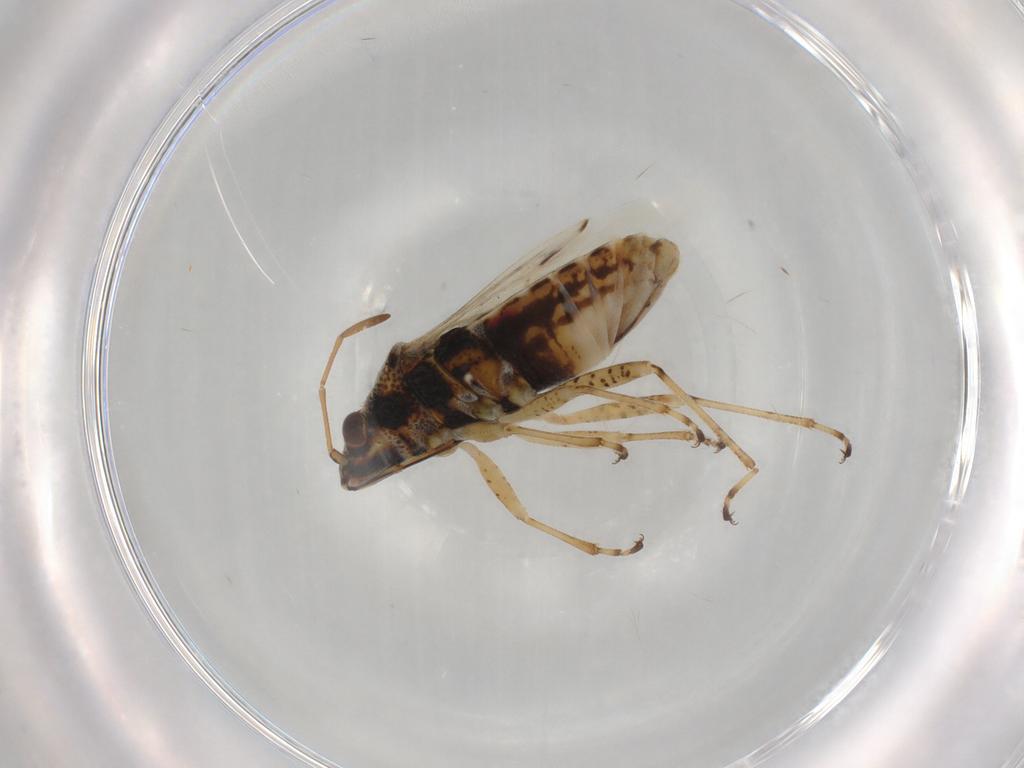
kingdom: Animalia
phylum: Arthropoda
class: Insecta
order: Hemiptera
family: Lygaeidae
